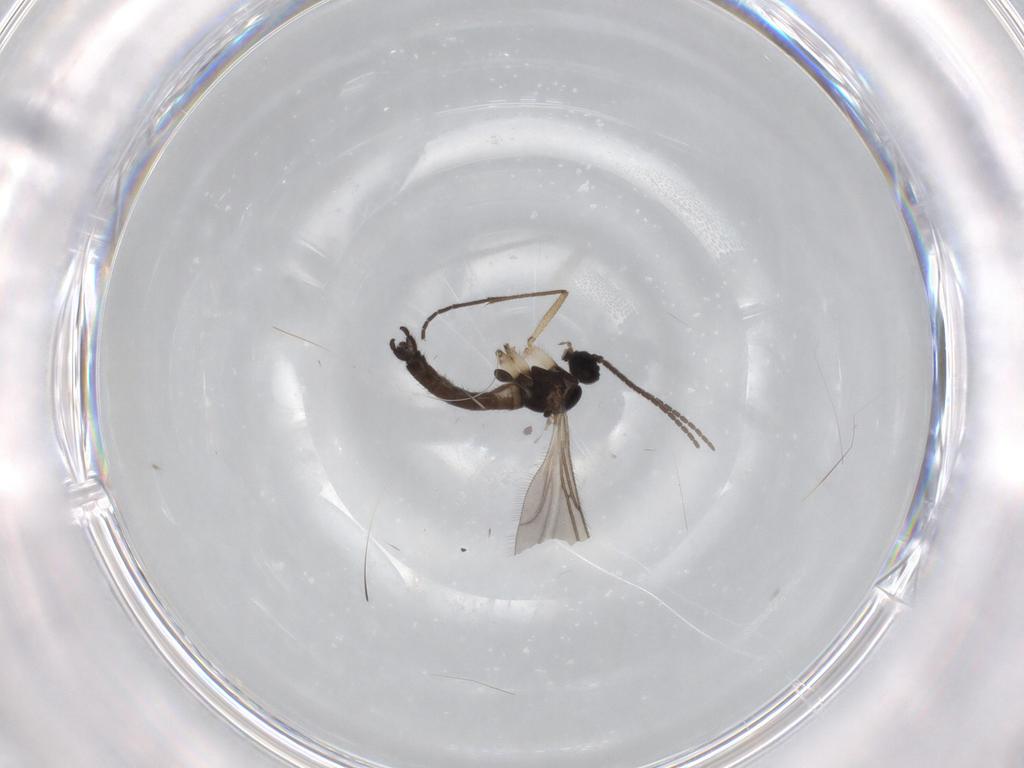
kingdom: Animalia
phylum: Arthropoda
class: Insecta
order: Diptera
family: Sciaridae
